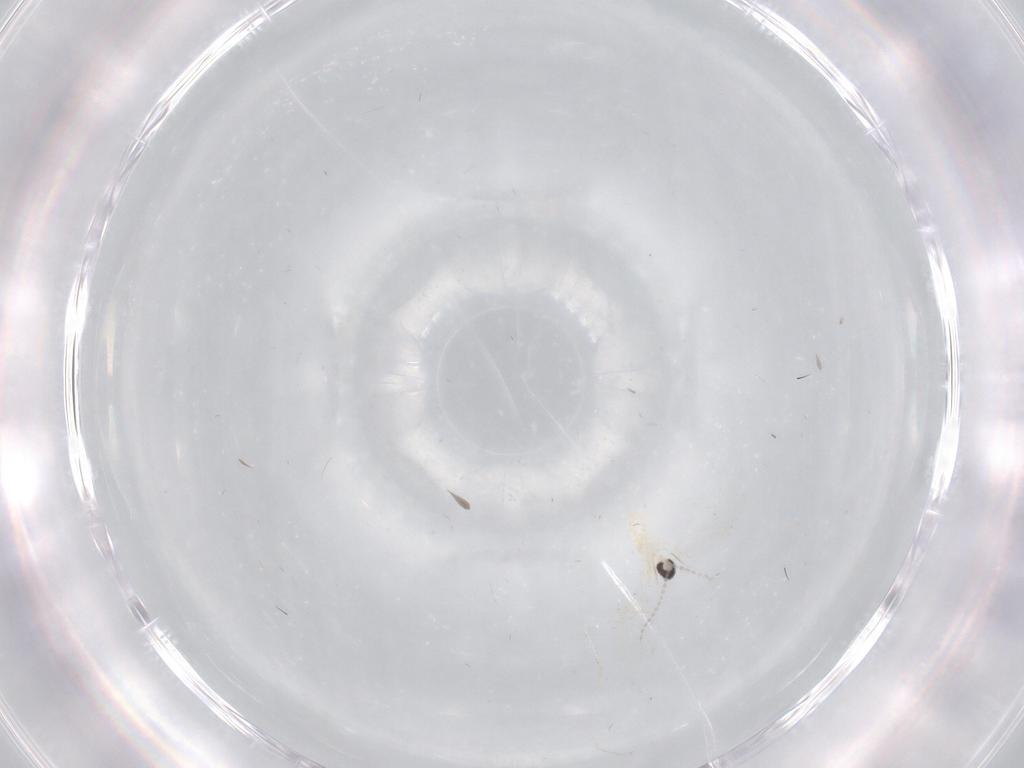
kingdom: Animalia
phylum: Arthropoda
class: Insecta
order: Diptera
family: Cecidomyiidae
